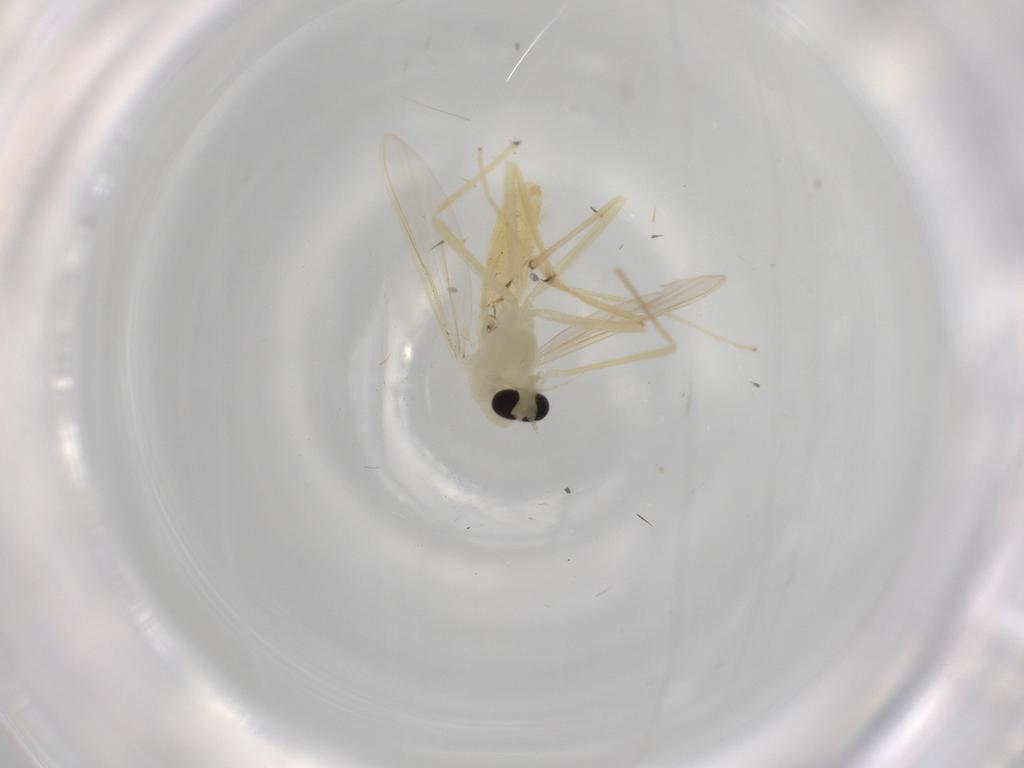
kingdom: Animalia
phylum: Arthropoda
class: Insecta
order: Diptera
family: Chironomidae
